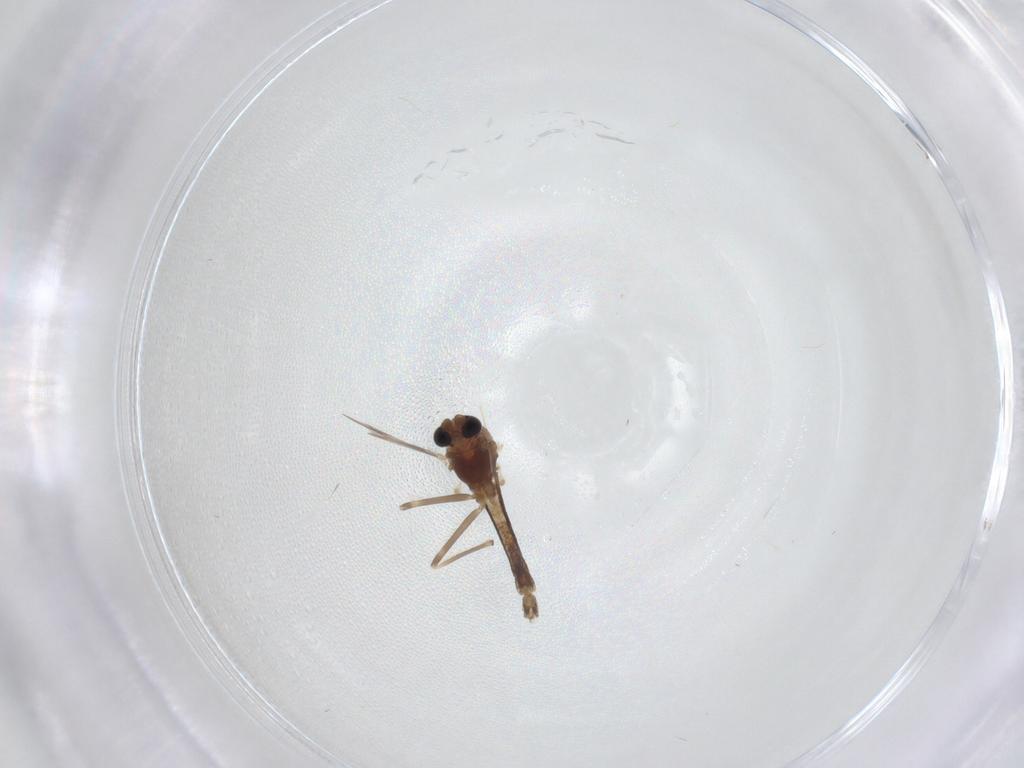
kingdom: Animalia
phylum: Arthropoda
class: Insecta
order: Diptera
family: Chironomidae
